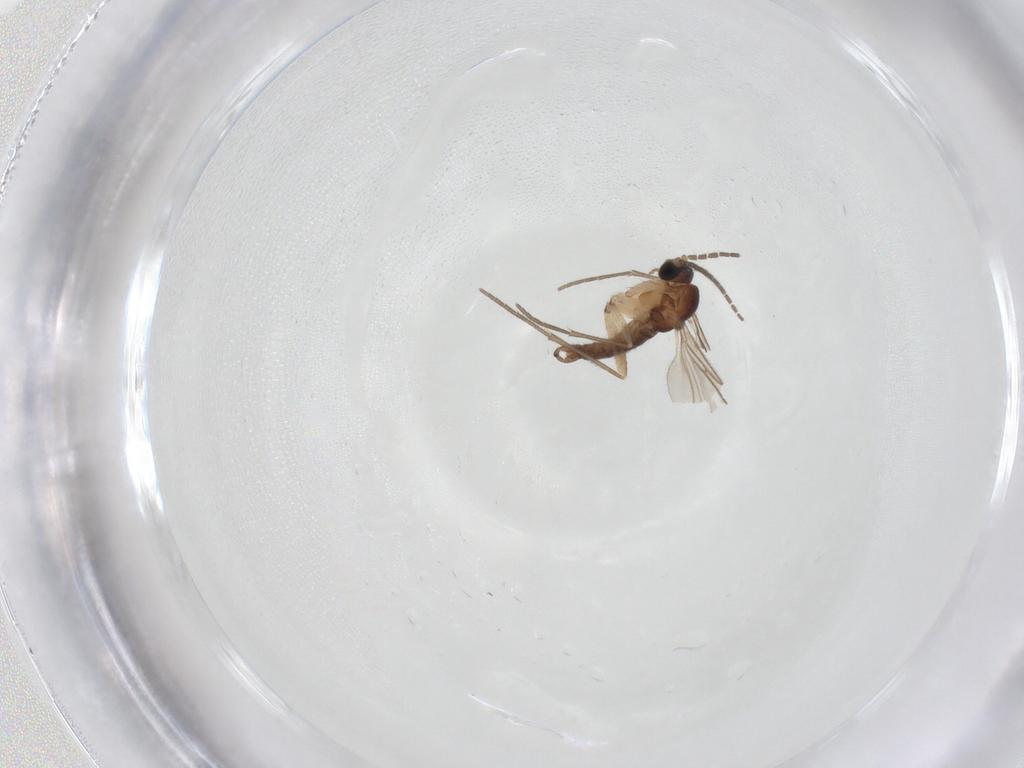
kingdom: Animalia
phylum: Arthropoda
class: Insecta
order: Diptera
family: Sciaridae
